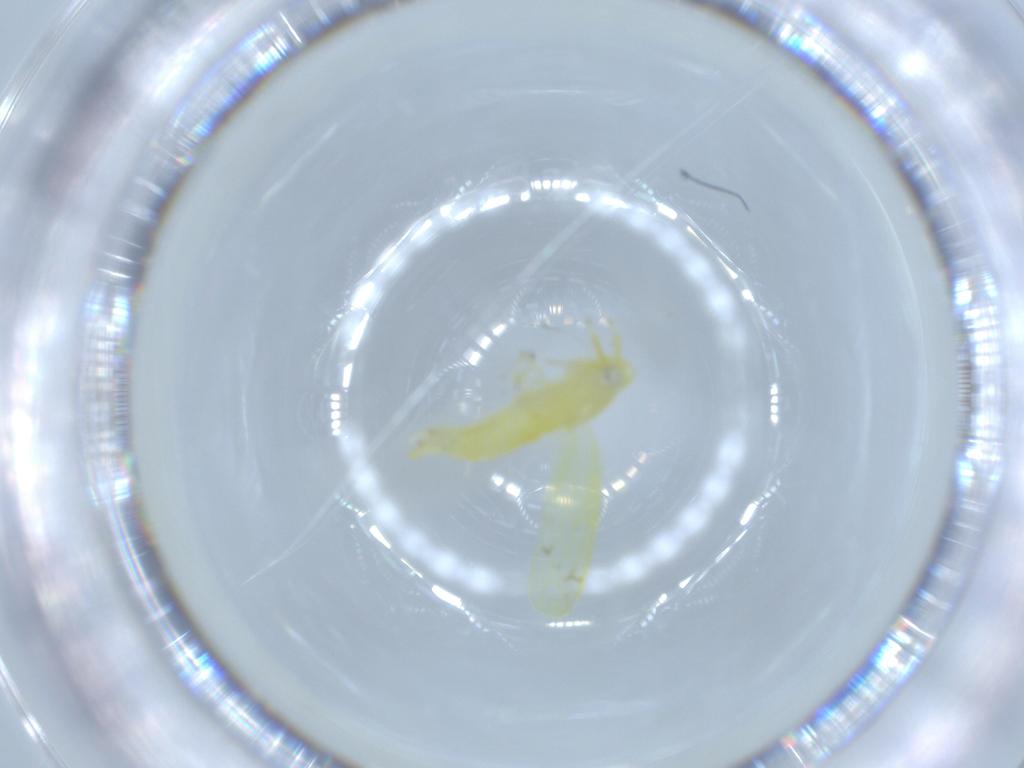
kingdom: Animalia
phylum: Arthropoda
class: Insecta
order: Hemiptera
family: Cicadellidae
